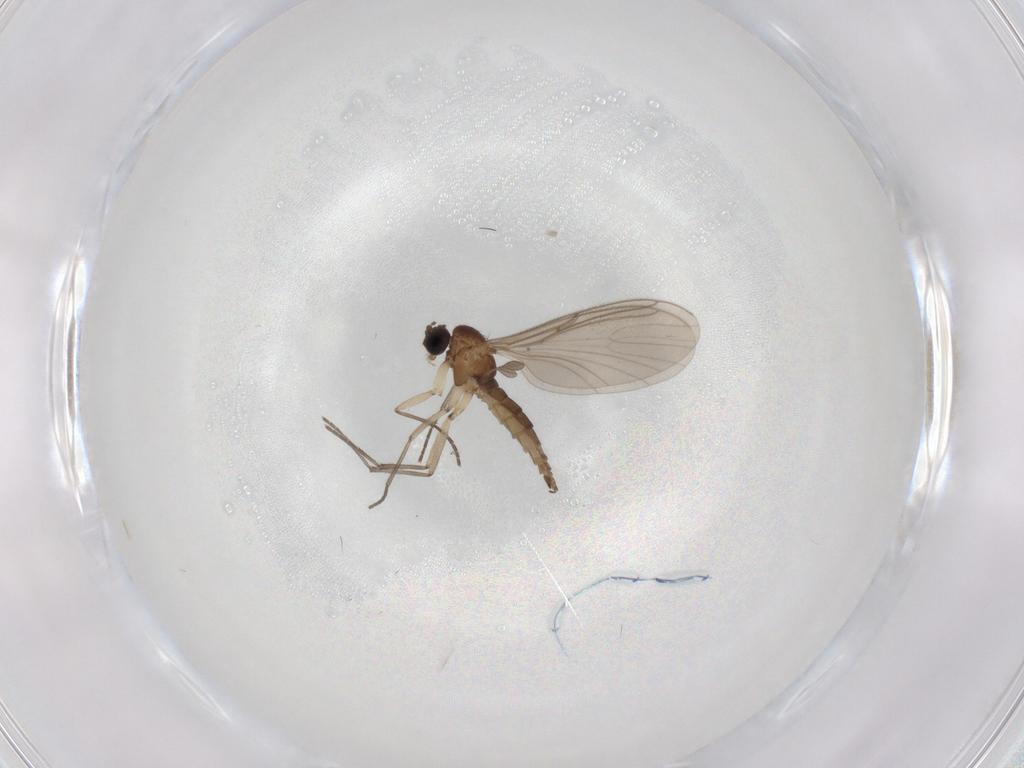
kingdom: Animalia
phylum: Arthropoda
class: Insecta
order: Diptera
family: Sciaridae
